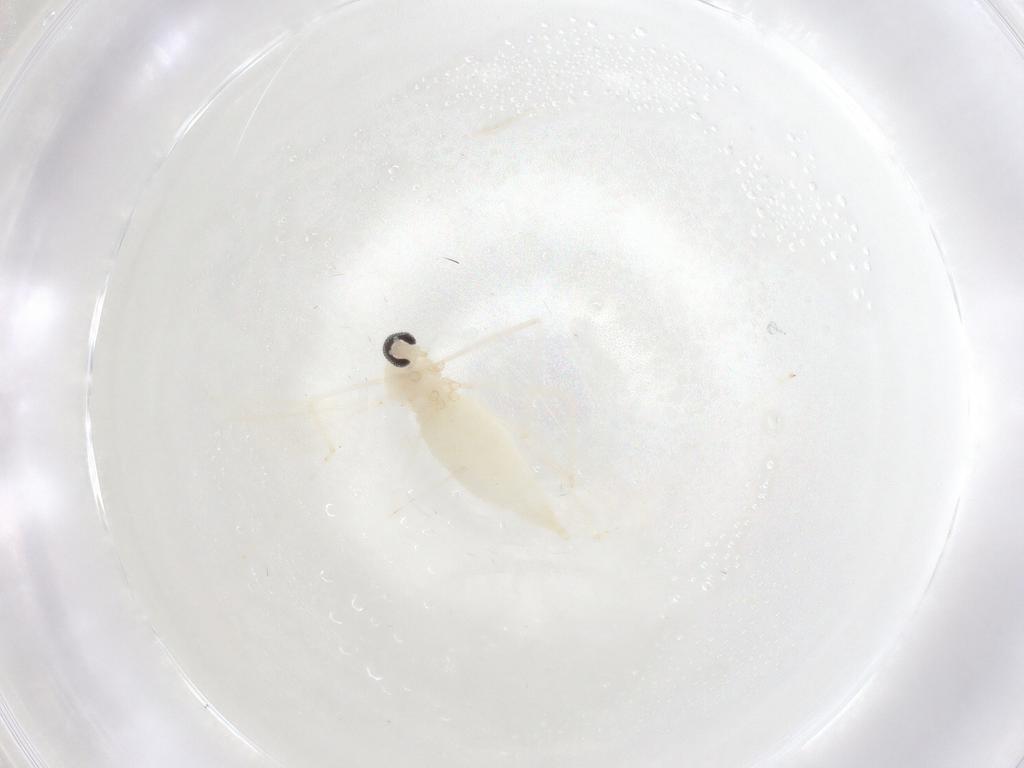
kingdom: Animalia
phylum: Arthropoda
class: Insecta
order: Diptera
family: Cecidomyiidae
